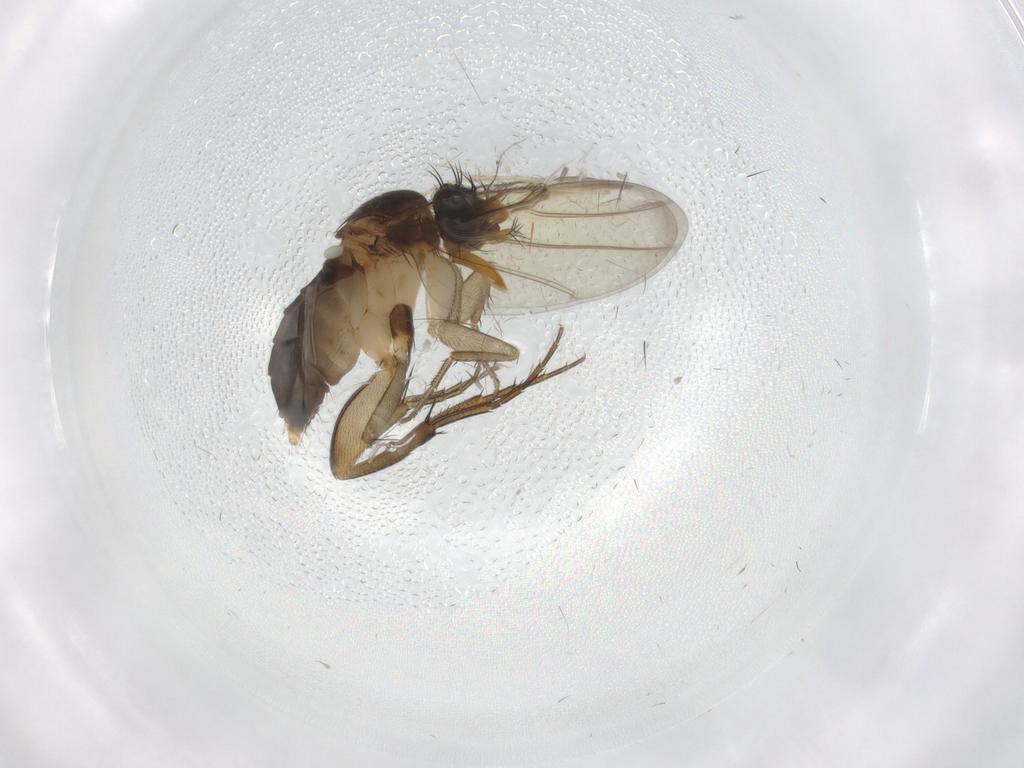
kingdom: Animalia
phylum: Arthropoda
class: Insecta
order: Diptera
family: Chironomidae
